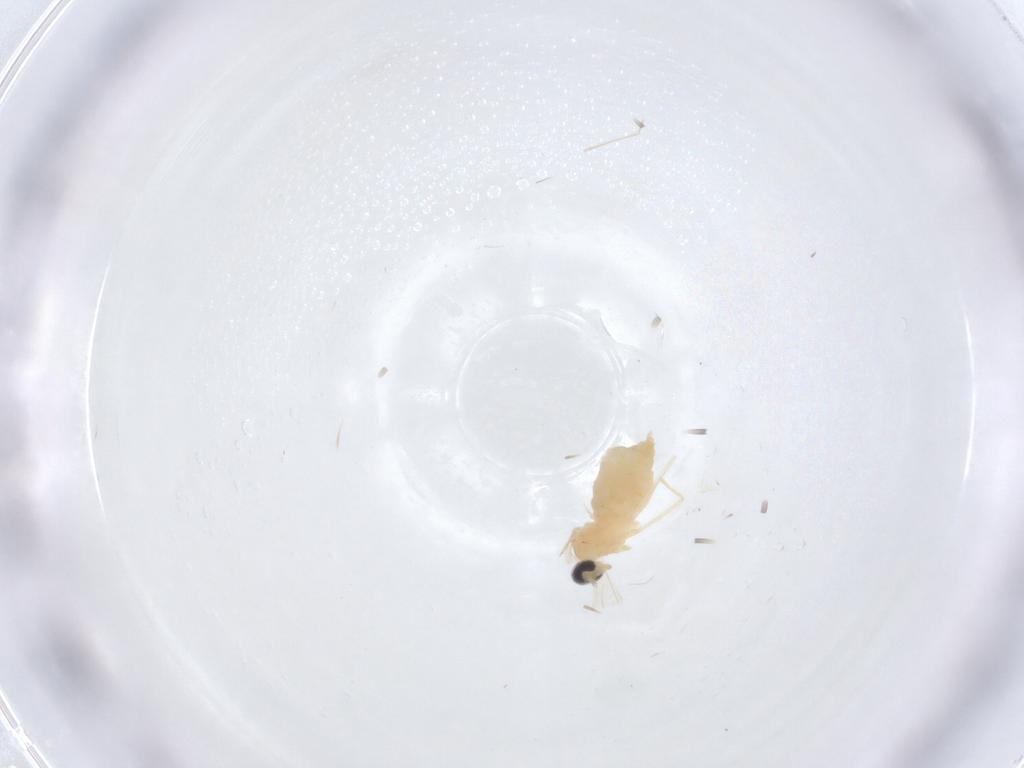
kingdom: Animalia
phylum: Arthropoda
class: Insecta
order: Diptera
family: Cecidomyiidae
